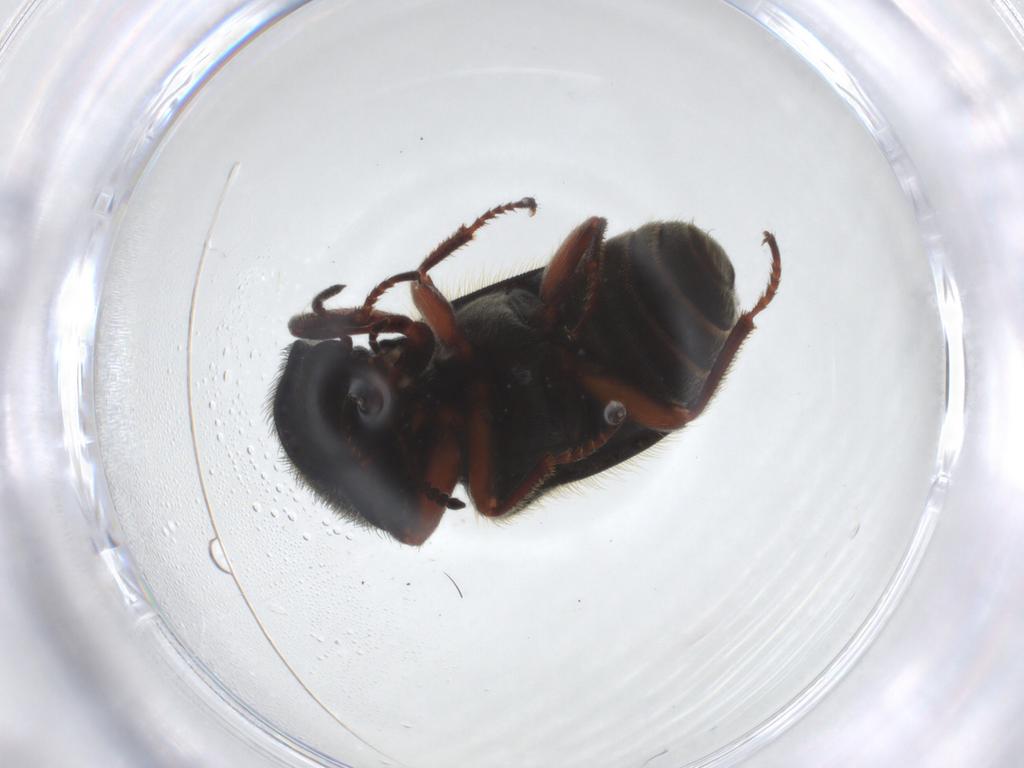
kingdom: Animalia
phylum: Arthropoda
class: Insecta
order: Coleoptera
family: Melyridae
